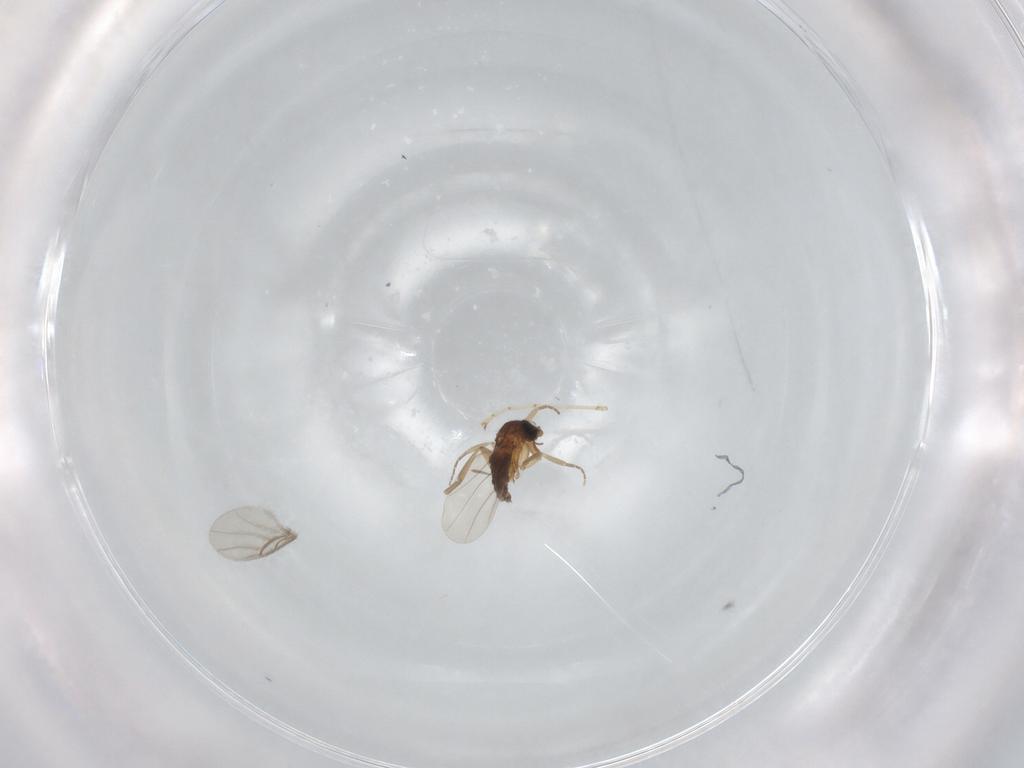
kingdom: Animalia
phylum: Arthropoda
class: Insecta
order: Diptera
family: Phoridae
